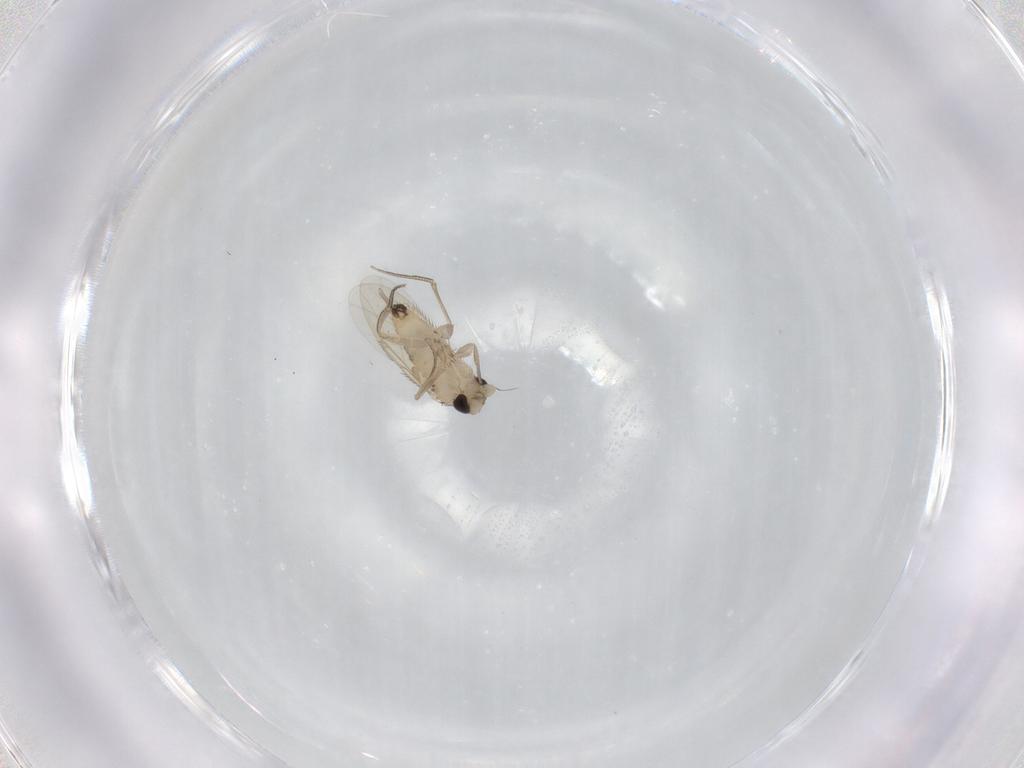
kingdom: Animalia
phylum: Arthropoda
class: Insecta
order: Diptera
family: Phoridae
